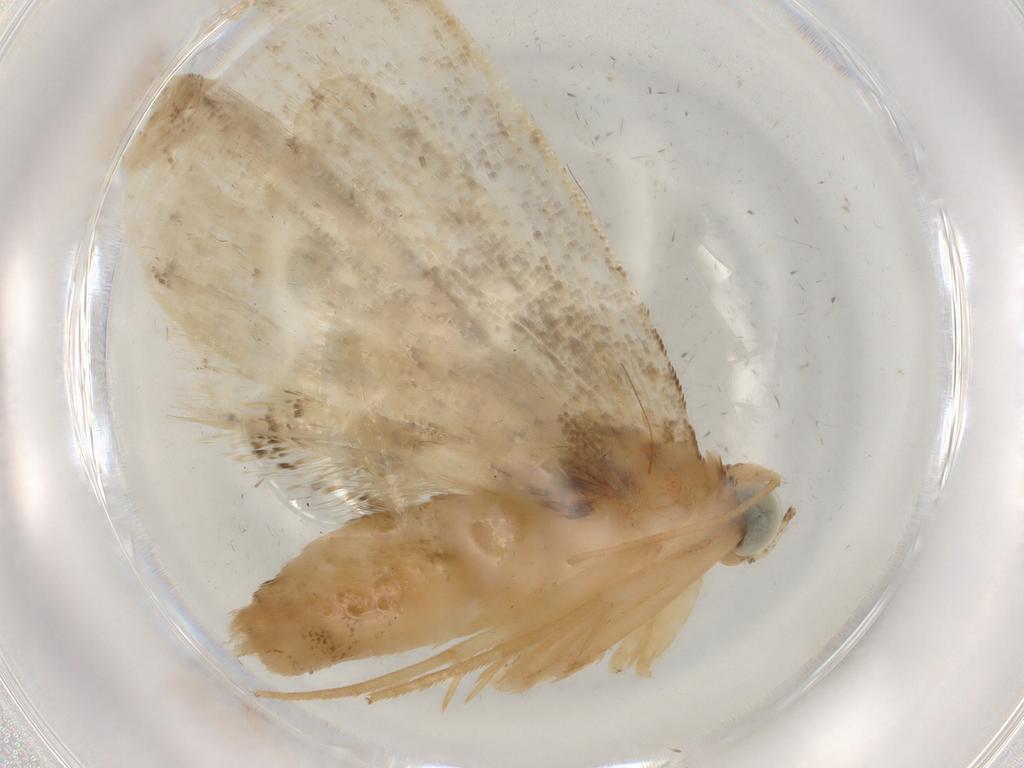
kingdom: Animalia
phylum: Arthropoda
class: Insecta
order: Lepidoptera
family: Erebidae
